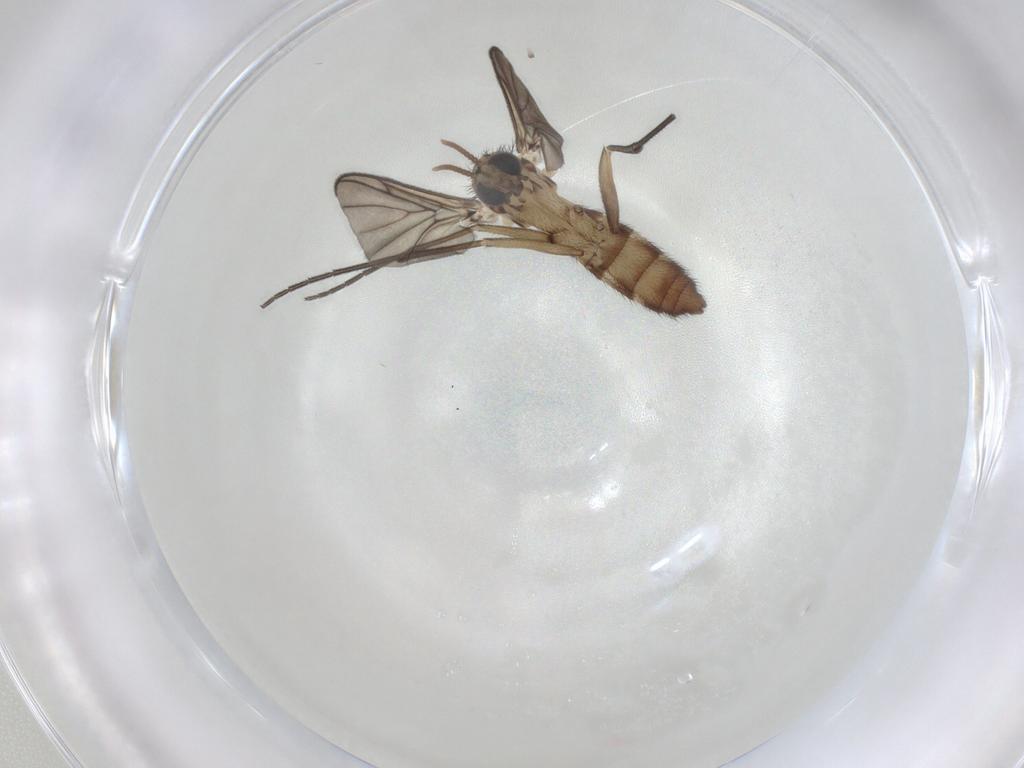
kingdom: Animalia
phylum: Arthropoda
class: Insecta
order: Diptera
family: Keroplatidae
